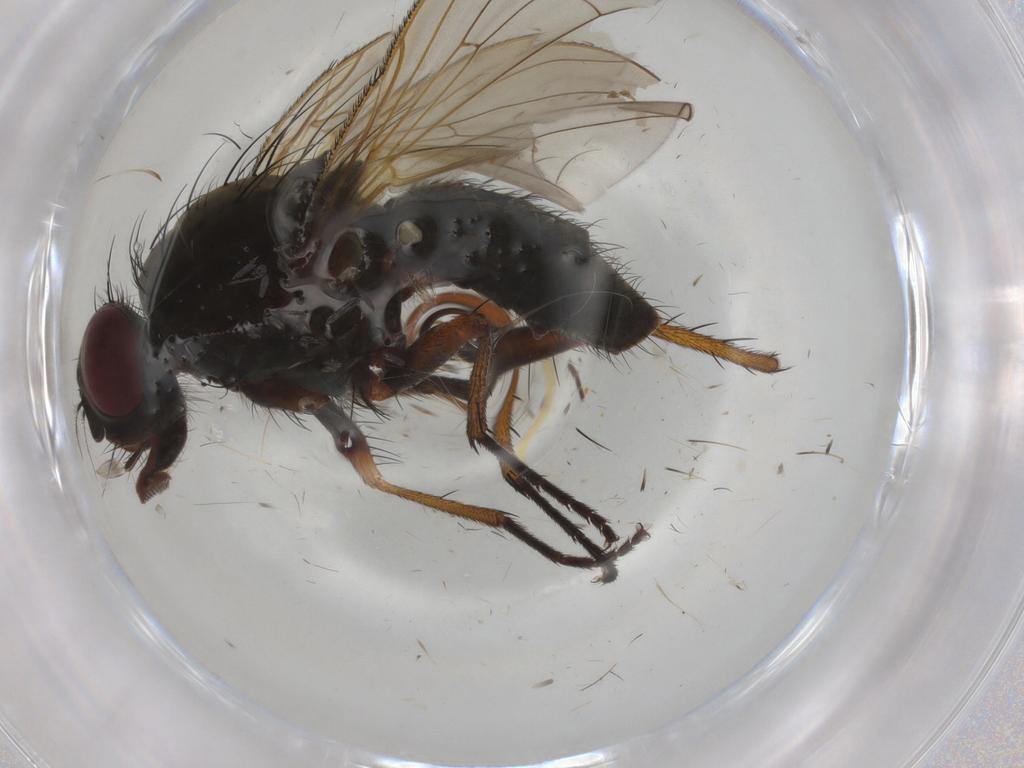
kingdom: Animalia
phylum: Arthropoda
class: Insecta
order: Diptera
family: Anthomyiidae
